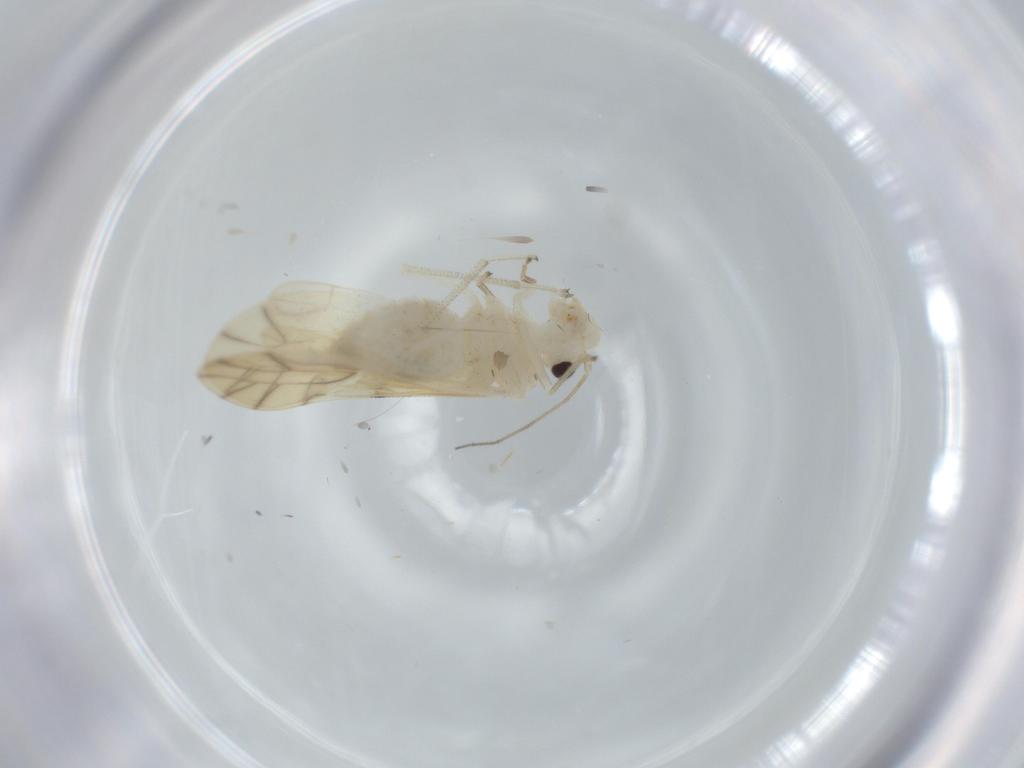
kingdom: Animalia
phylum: Arthropoda
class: Insecta
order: Psocodea
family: Caeciliusidae
